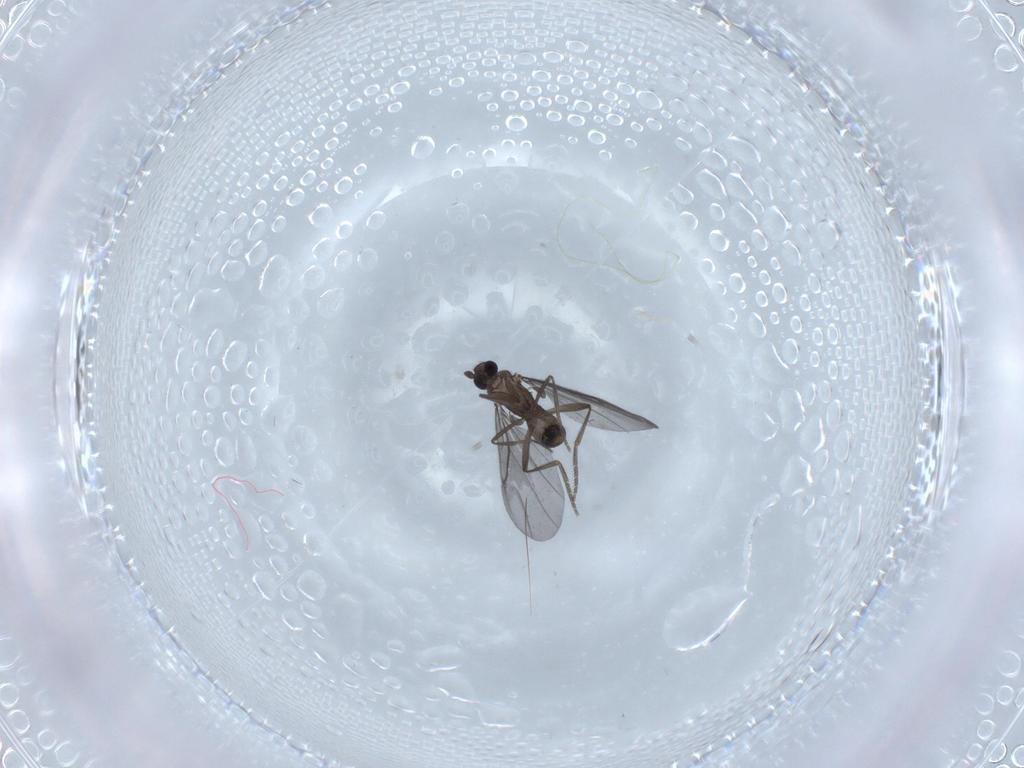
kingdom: Animalia
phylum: Arthropoda
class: Insecta
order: Diptera
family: Phoridae
